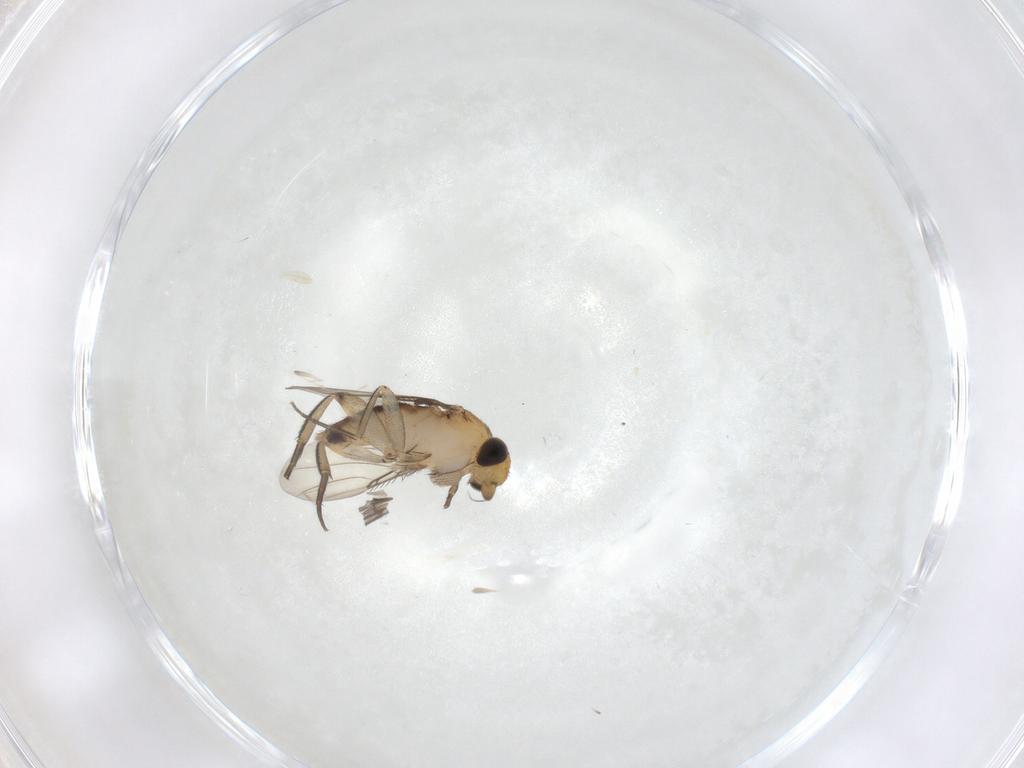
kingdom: Animalia
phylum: Arthropoda
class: Insecta
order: Diptera
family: Phoridae
